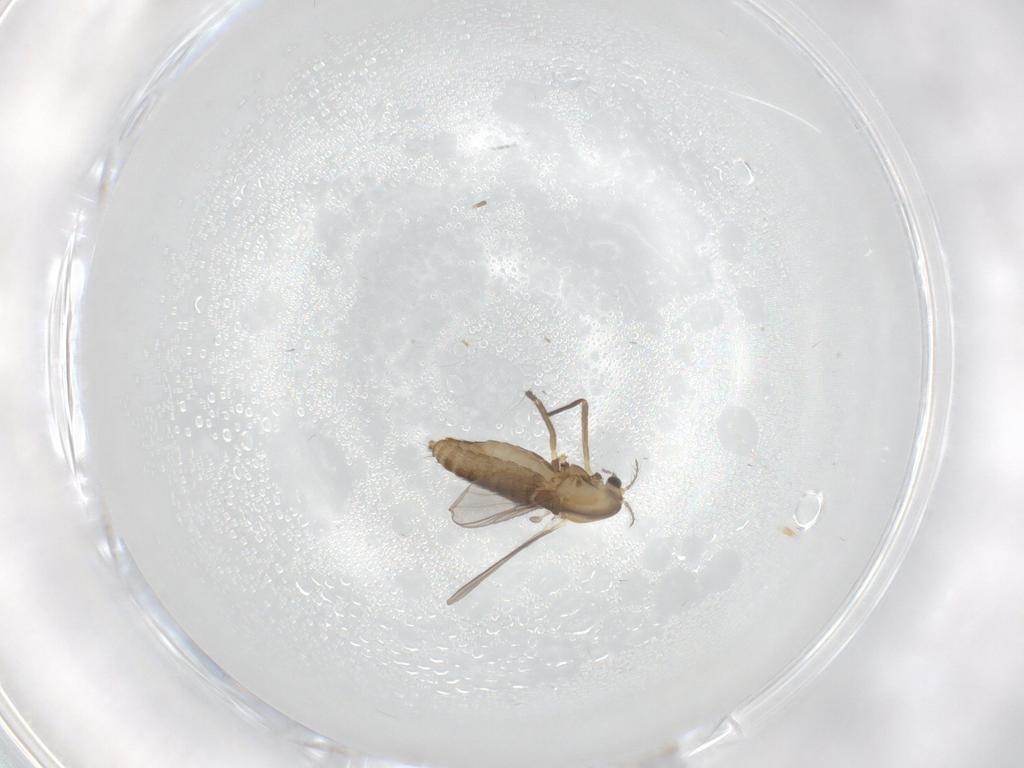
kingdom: Animalia
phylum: Arthropoda
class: Insecta
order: Diptera
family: Chironomidae
